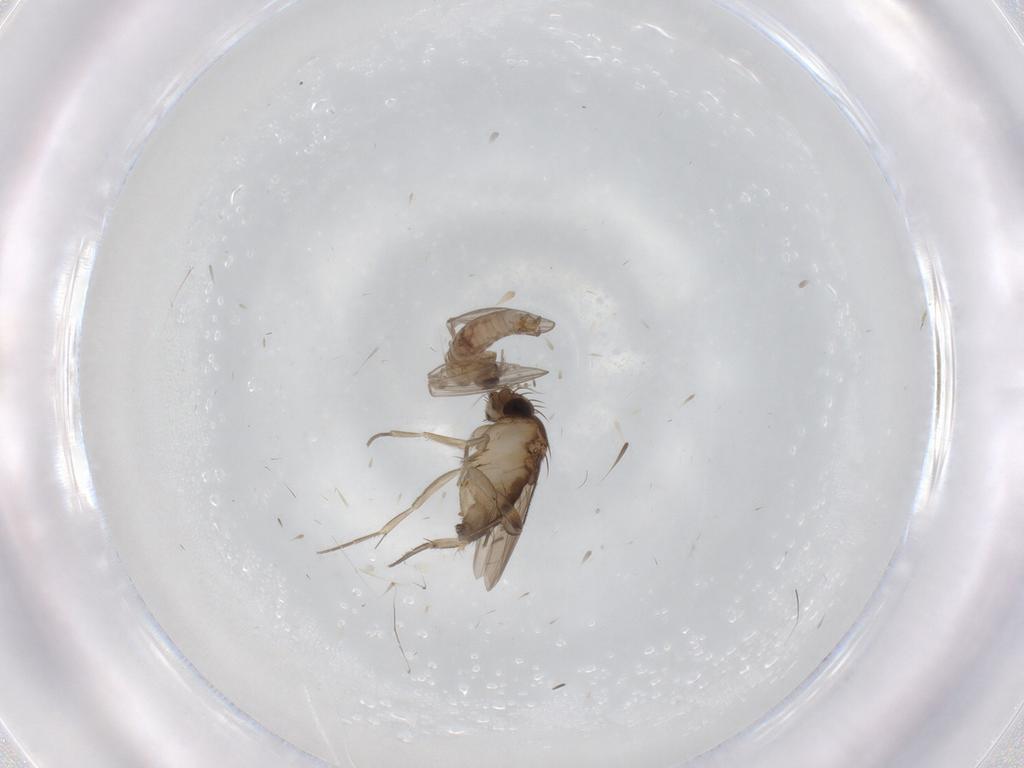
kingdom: Animalia
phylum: Arthropoda
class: Insecta
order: Diptera
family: Phoridae
